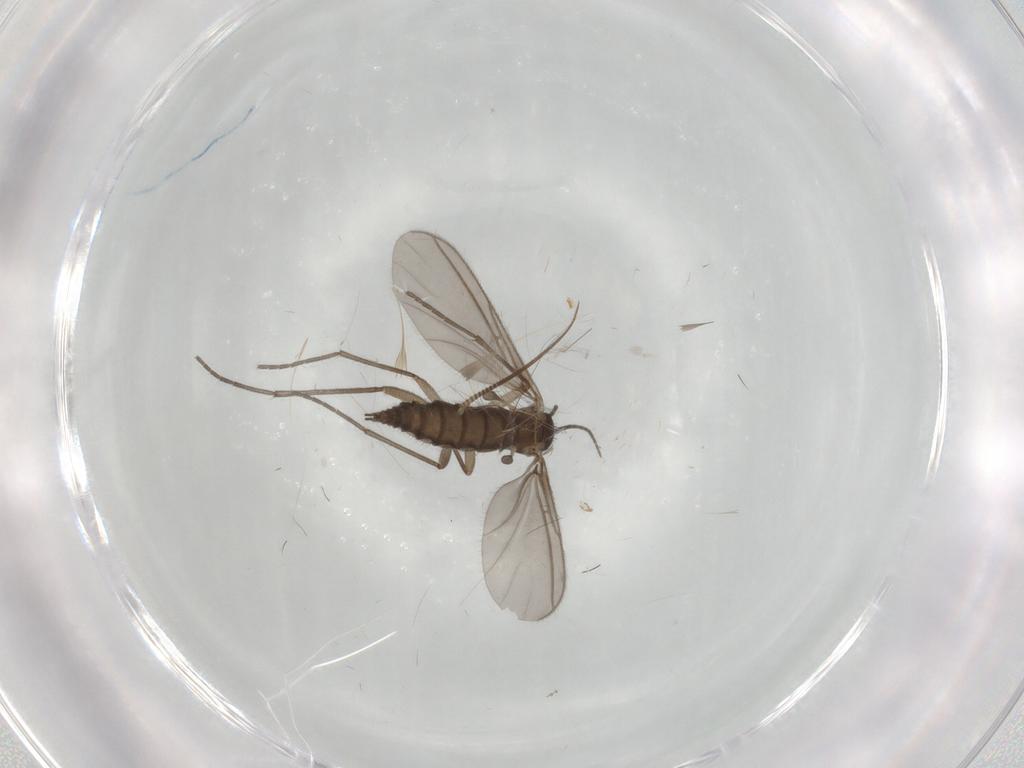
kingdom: Animalia
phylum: Arthropoda
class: Insecta
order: Diptera
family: Sciaridae
